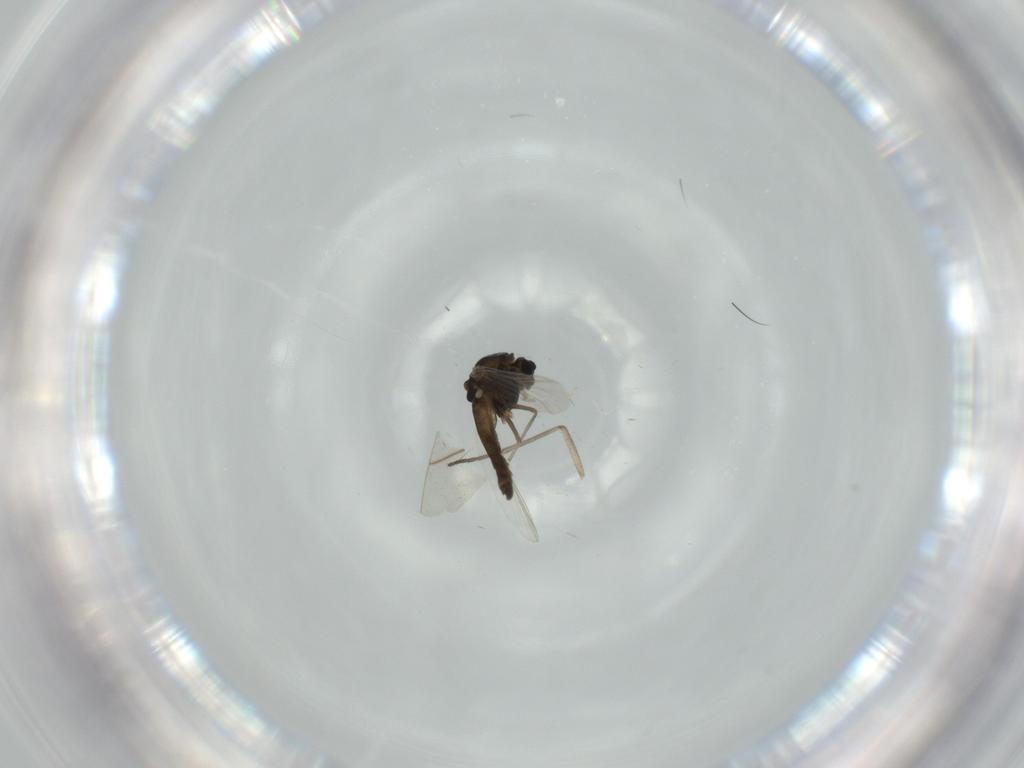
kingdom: Animalia
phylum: Arthropoda
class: Insecta
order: Diptera
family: Chironomidae
